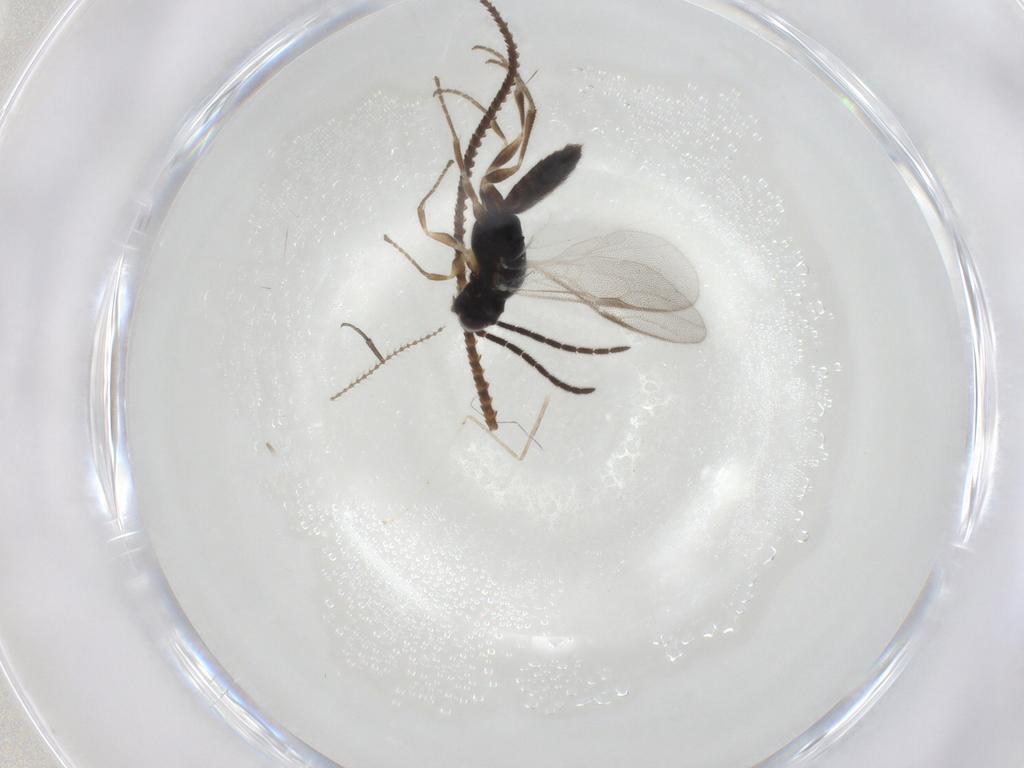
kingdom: Animalia
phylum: Arthropoda
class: Insecta
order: Hymenoptera
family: Dryinidae
